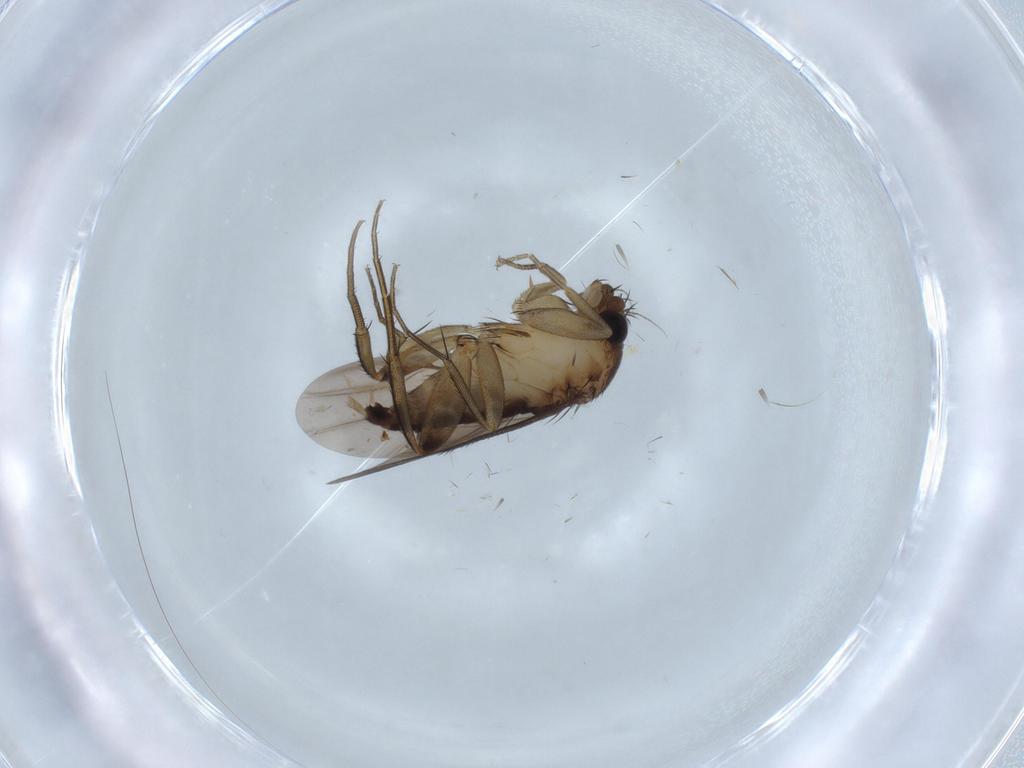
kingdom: Animalia
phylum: Arthropoda
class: Insecta
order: Diptera
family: Phoridae
